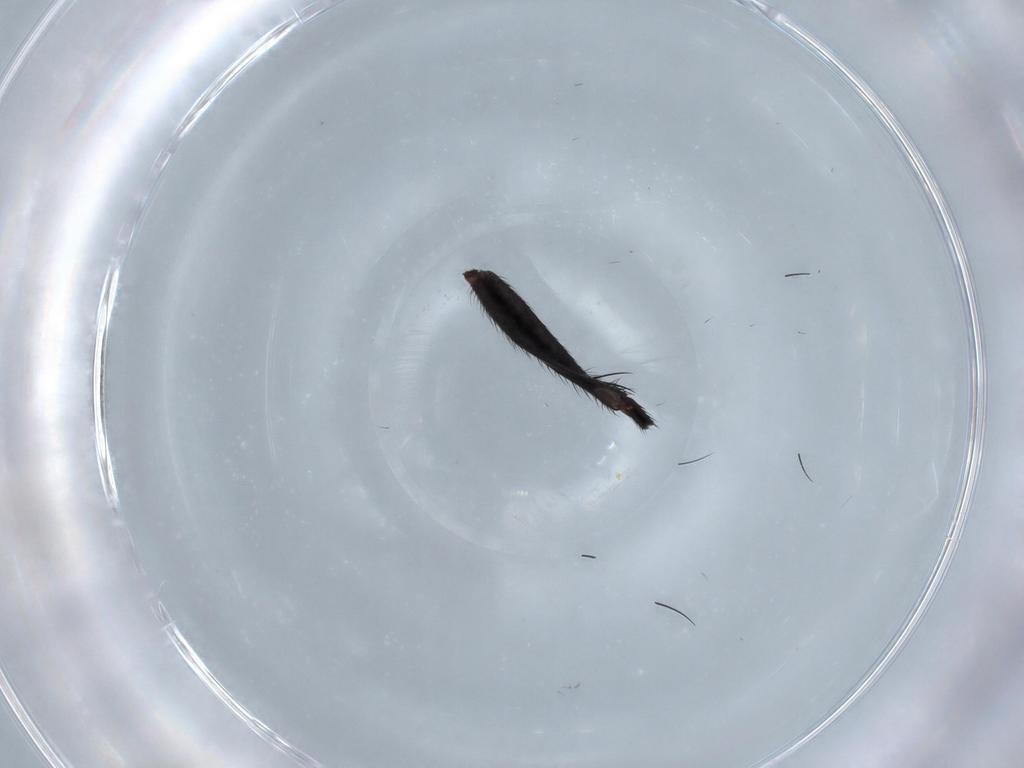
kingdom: Animalia
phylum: Arthropoda
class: Insecta
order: Diptera
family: Muscidae
